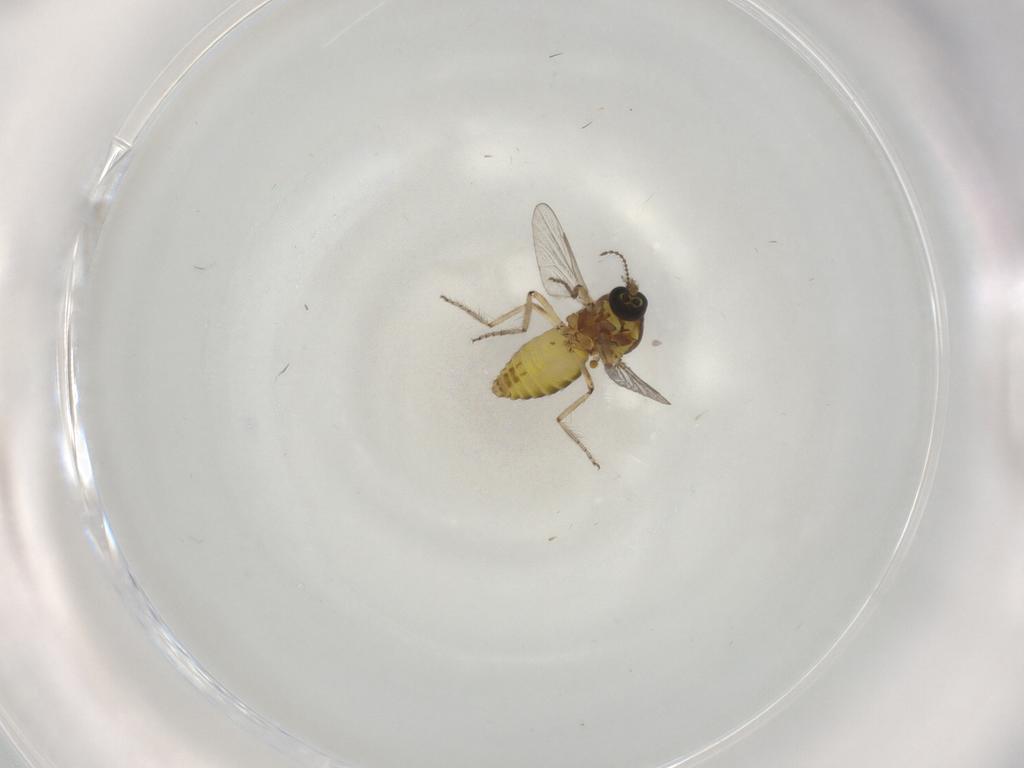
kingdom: Animalia
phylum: Arthropoda
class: Insecta
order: Diptera
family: Ceratopogonidae
